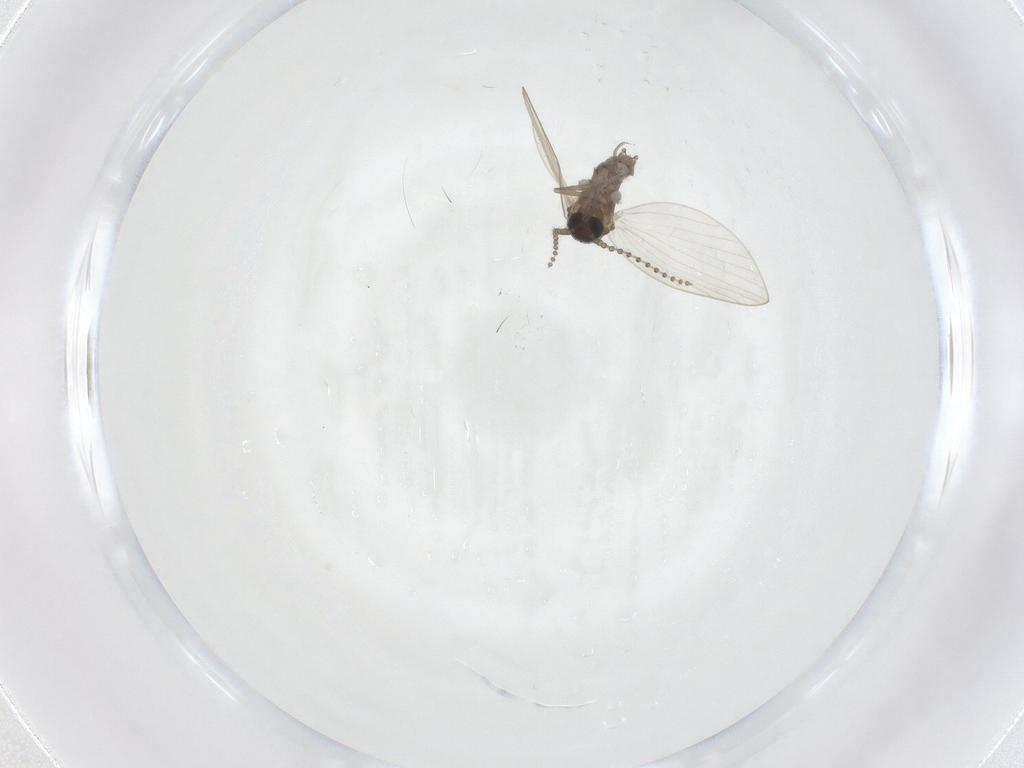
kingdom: Animalia
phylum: Arthropoda
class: Insecta
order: Diptera
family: Psychodidae
